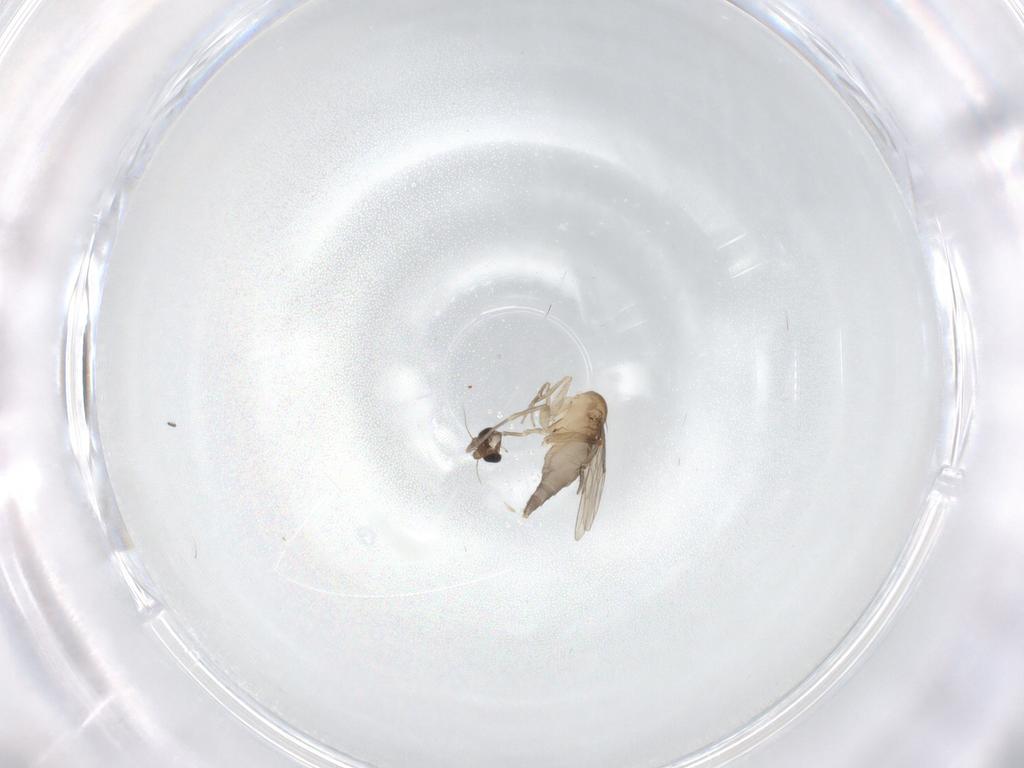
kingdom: Animalia
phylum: Arthropoda
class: Insecta
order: Diptera
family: Phoridae
